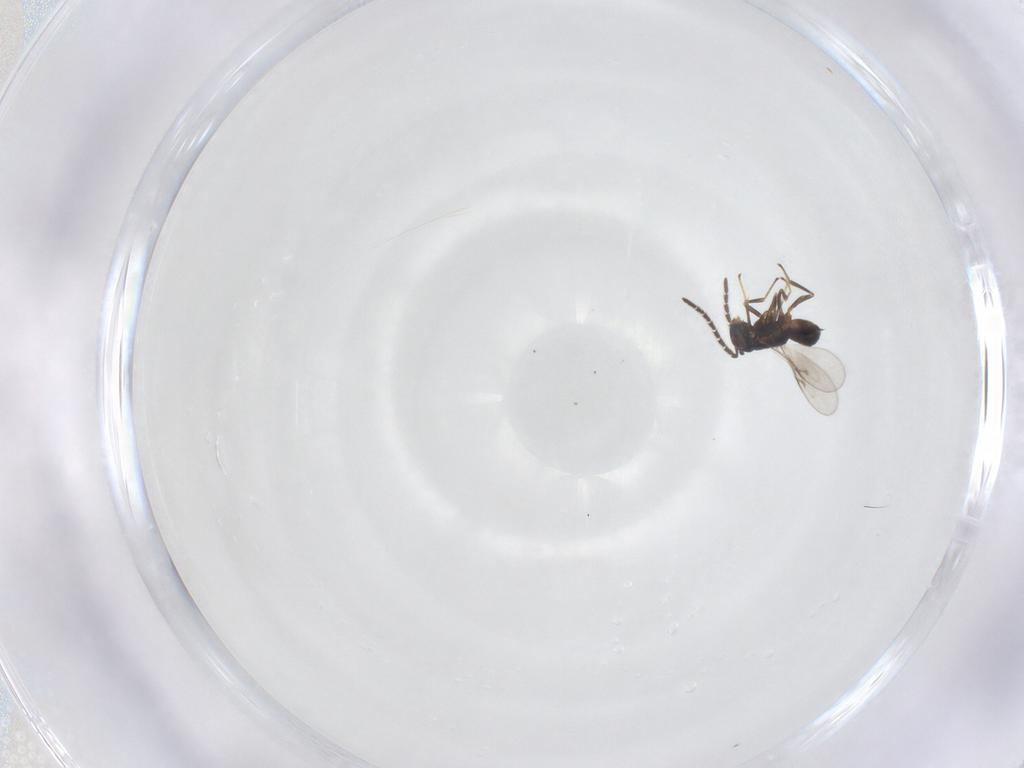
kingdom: Animalia
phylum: Arthropoda
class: Insecta
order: Hymenoptera
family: Encyrtidae
